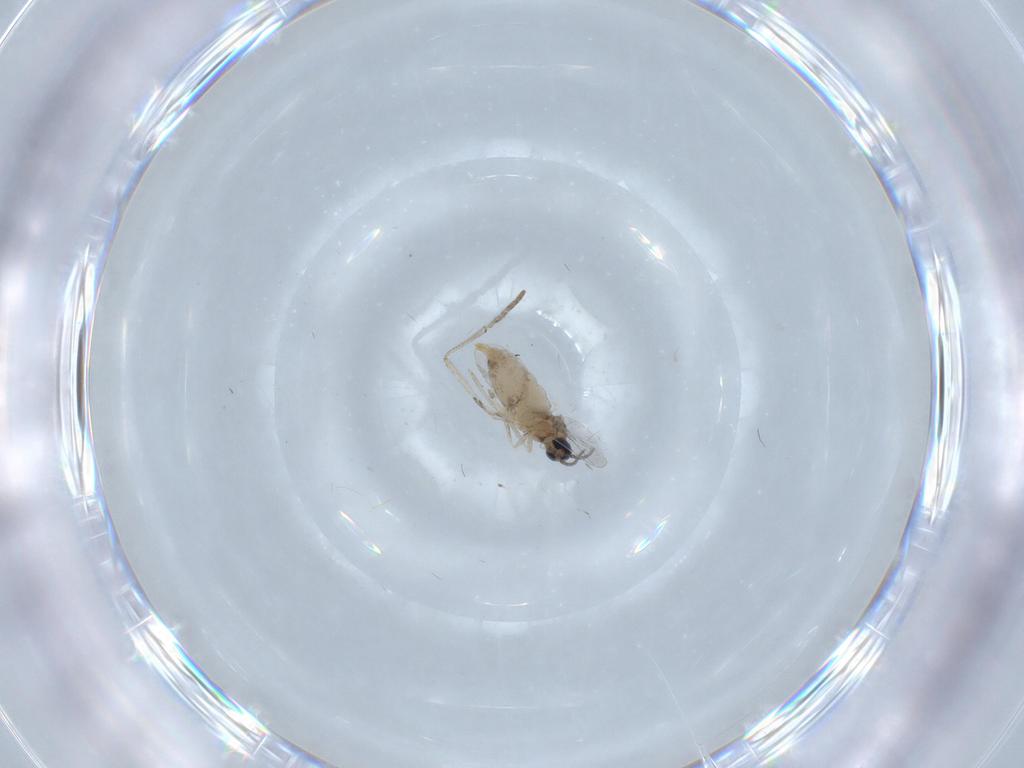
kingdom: Animalia
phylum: Arthropoda
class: Insecta
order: Diptera
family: Cecidomyiidae
